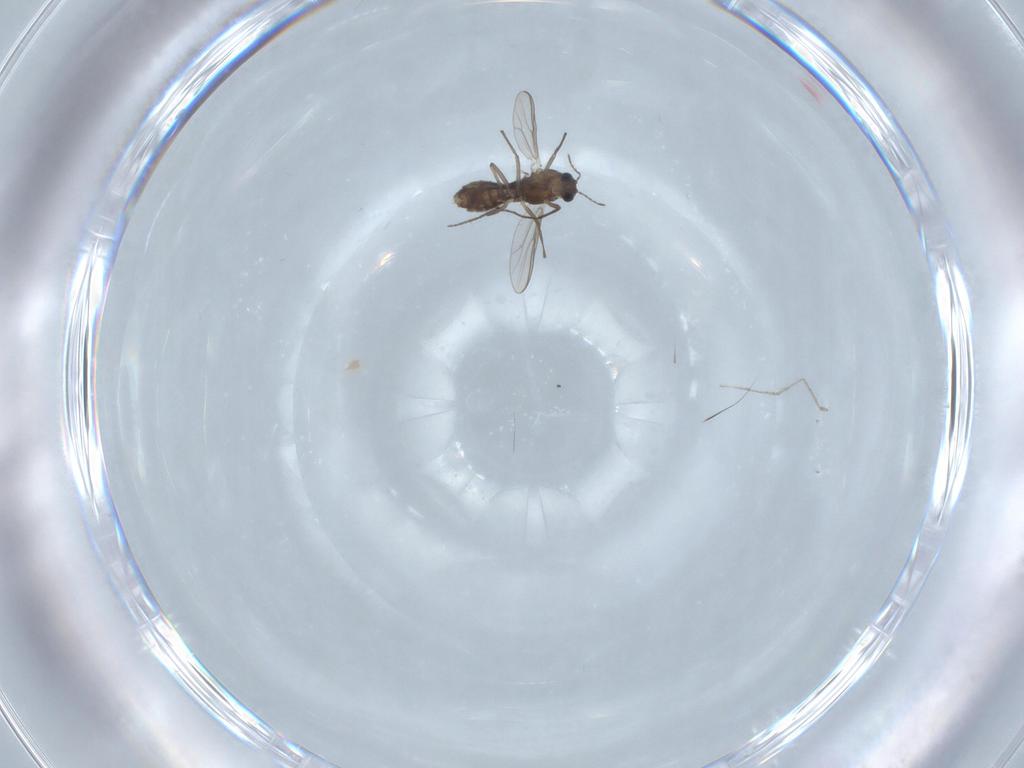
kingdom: Animalia
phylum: Arthropoda
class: Insecta
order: Diptera
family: Chironomidae
